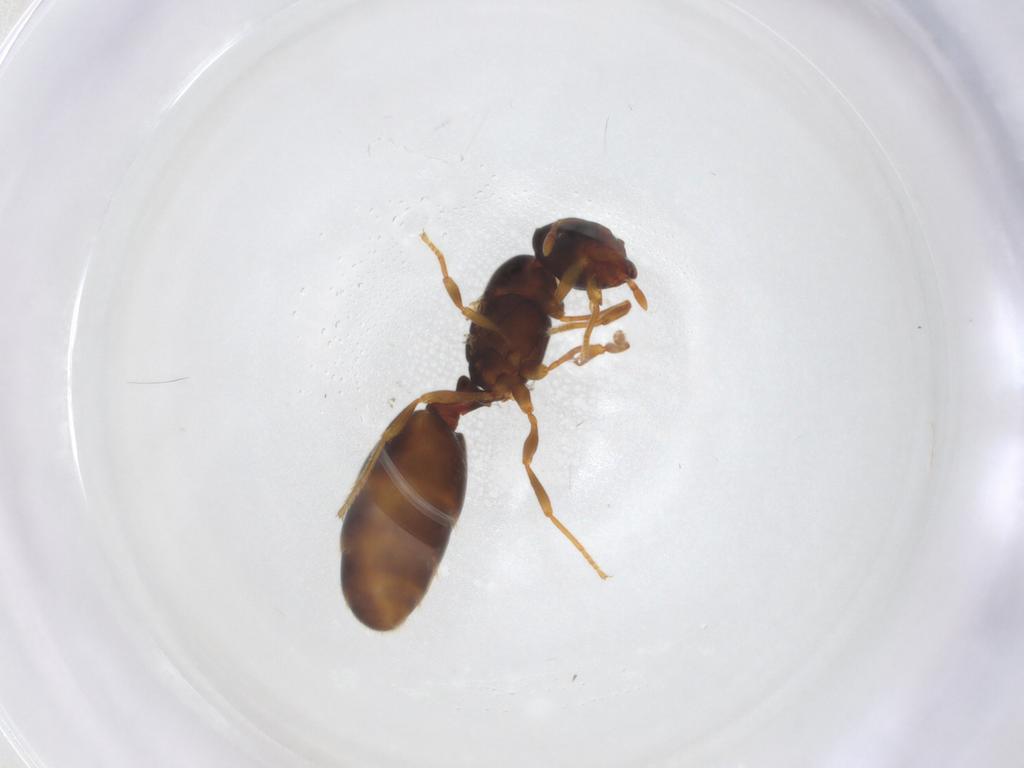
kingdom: Animalia
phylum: Arthropoda
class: Insecta
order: Hymenoptera
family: Formicidae
